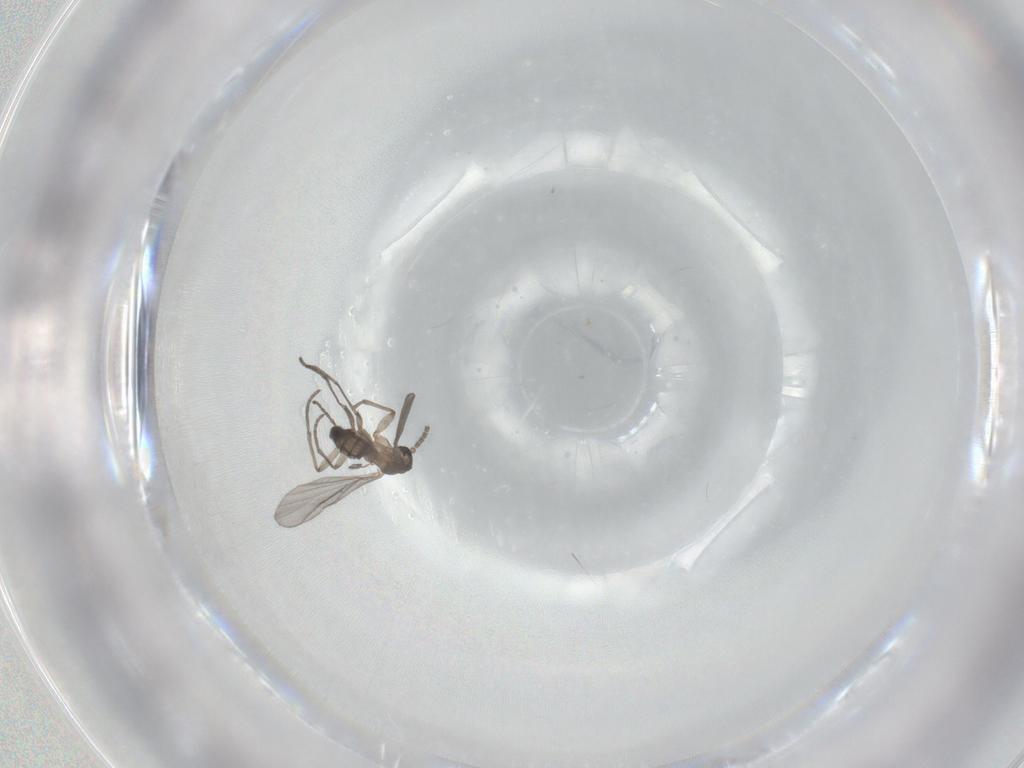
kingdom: Animalia
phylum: Arthropoda
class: Insecta
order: Diptera
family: Sciaridae
